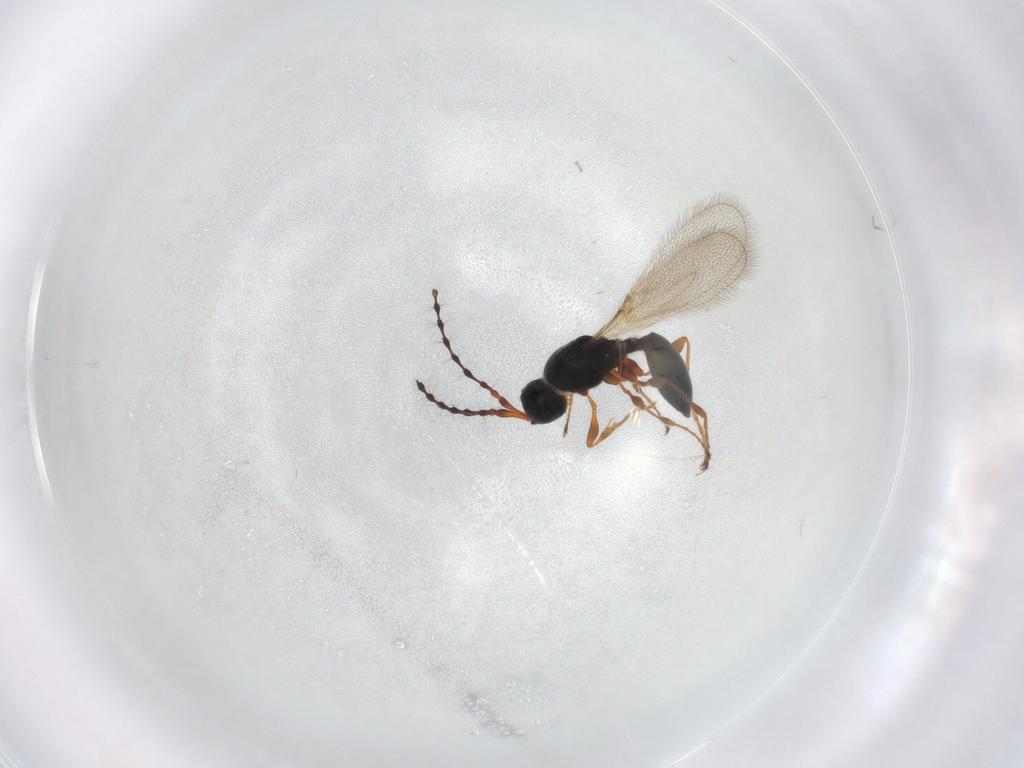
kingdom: Animalia
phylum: Arthropoda
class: Insecta
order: Hymenoptera
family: Diapriidae
